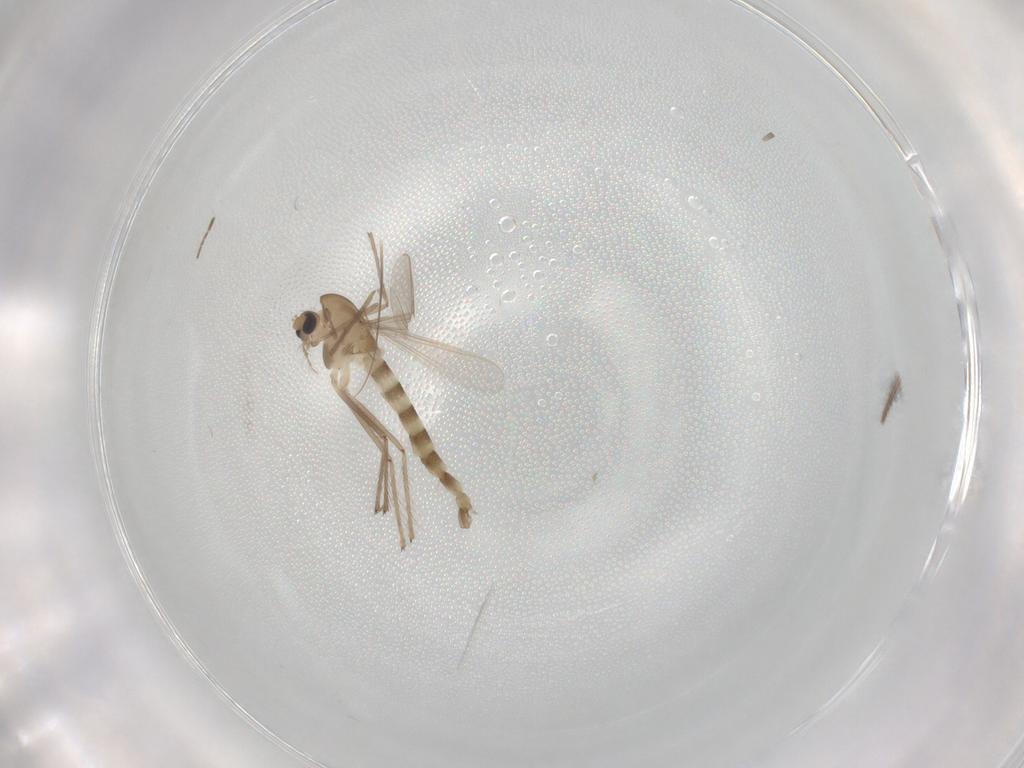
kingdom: Animalia
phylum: Arthropoda
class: Insecta
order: Diptera
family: Chironomidae
